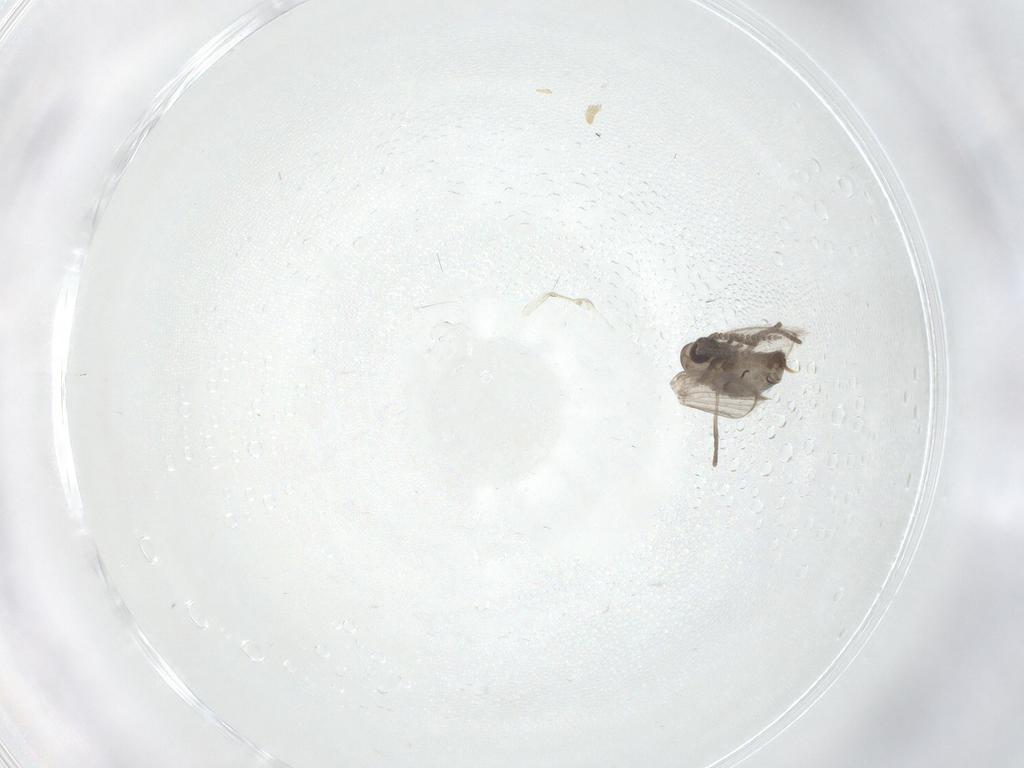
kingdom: Animalia
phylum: Arthropoda
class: Insecta
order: Diptera
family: Psychodidae
